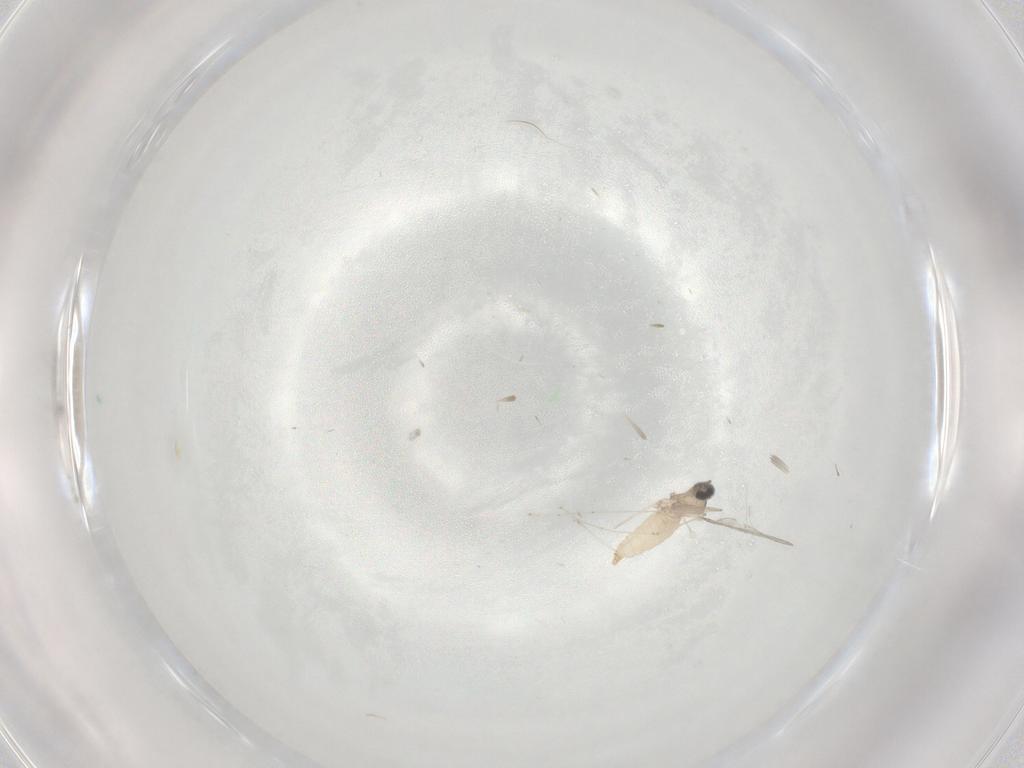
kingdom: Animalia
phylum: Arthropoda
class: Insecta
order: Diptera
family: Cecidomyiidae
